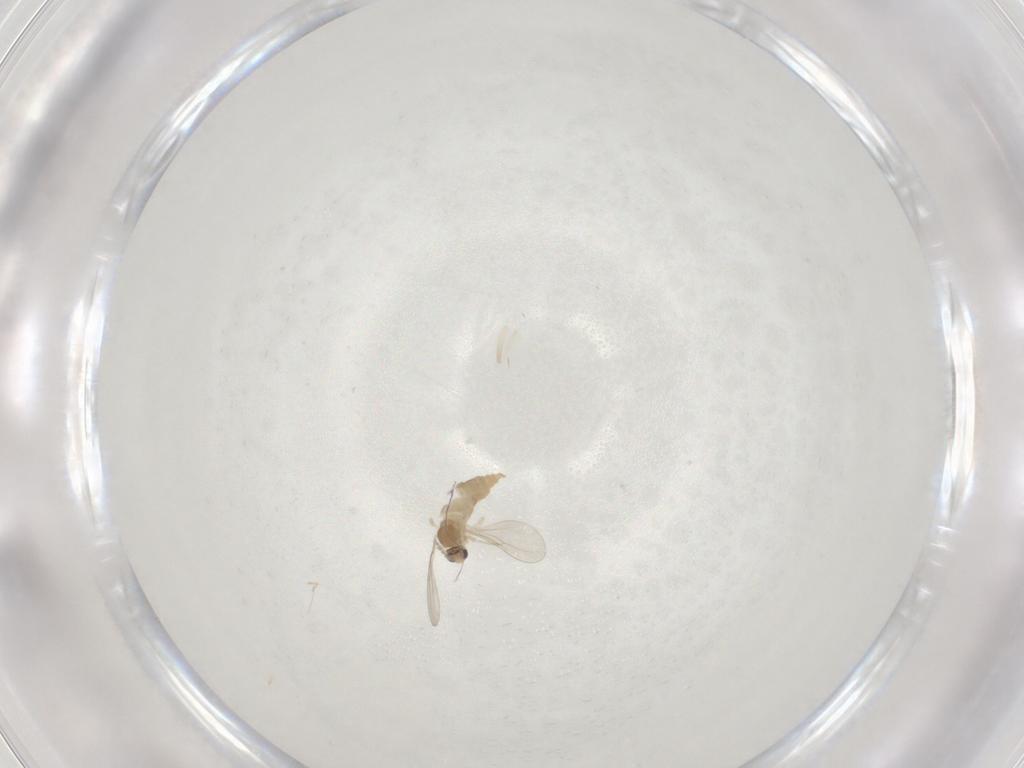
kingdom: Animalia
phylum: Arthropoda
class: Insecta
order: Diptera
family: Cecidomyiidae
